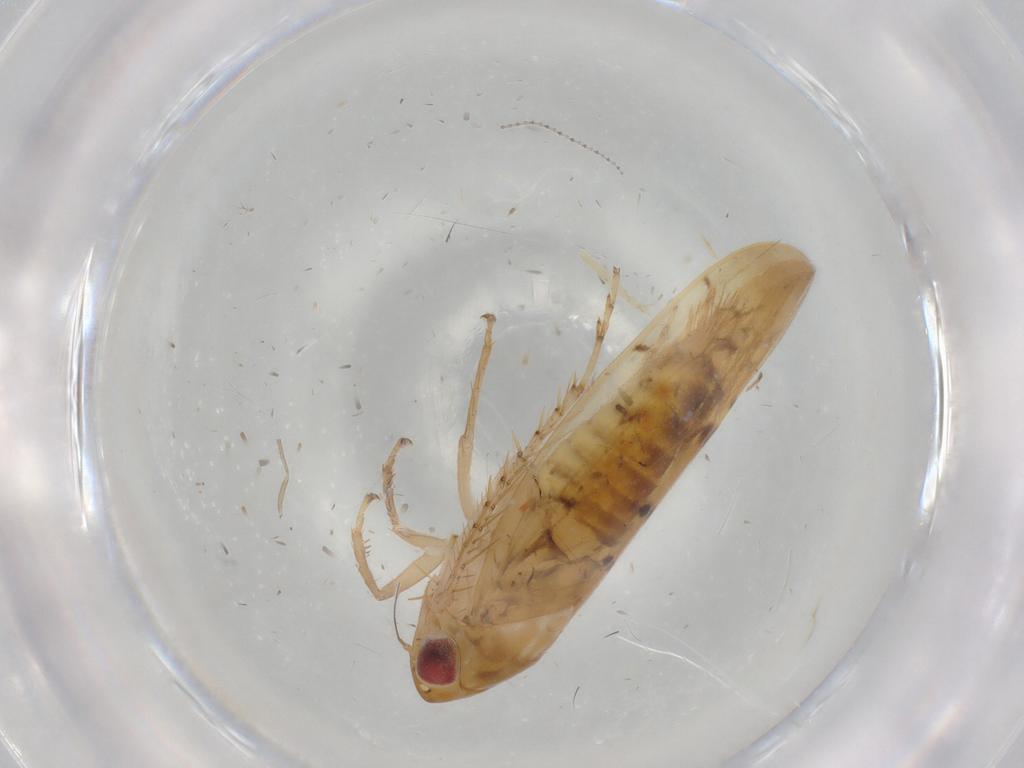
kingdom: Animalia
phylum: Arthropoda
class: Insecta
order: Hemiptera
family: Cicadellidae
